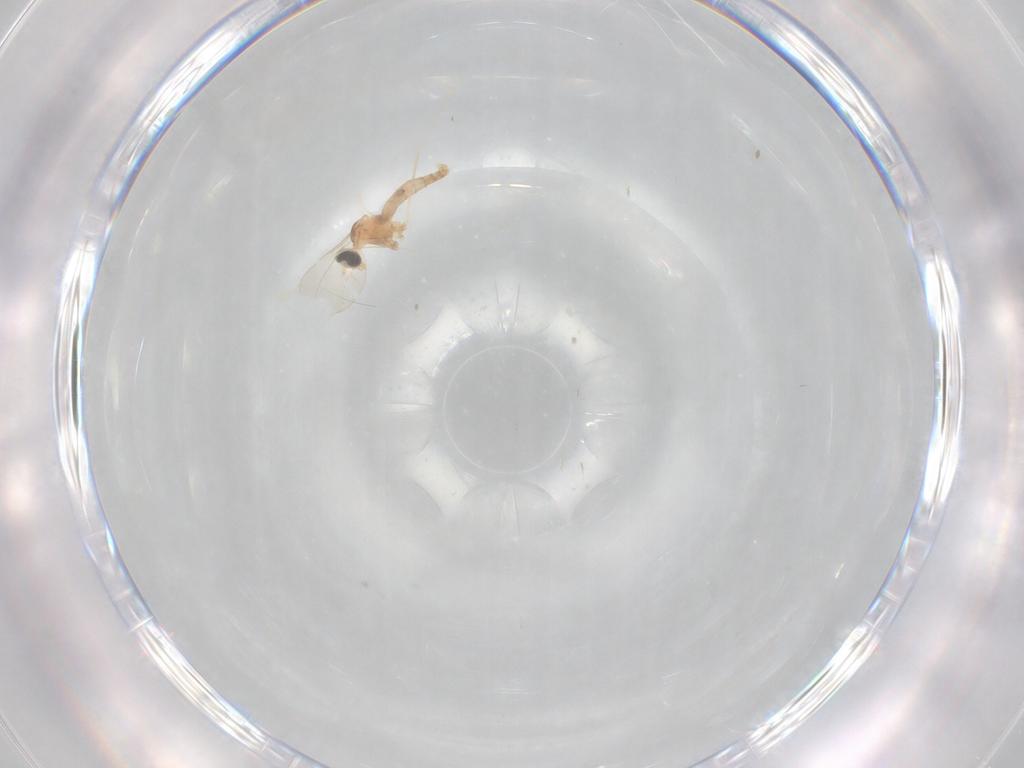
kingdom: Animalia
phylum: Arthropoda
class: Insecta
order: Diptera
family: Cecidomyiidae
